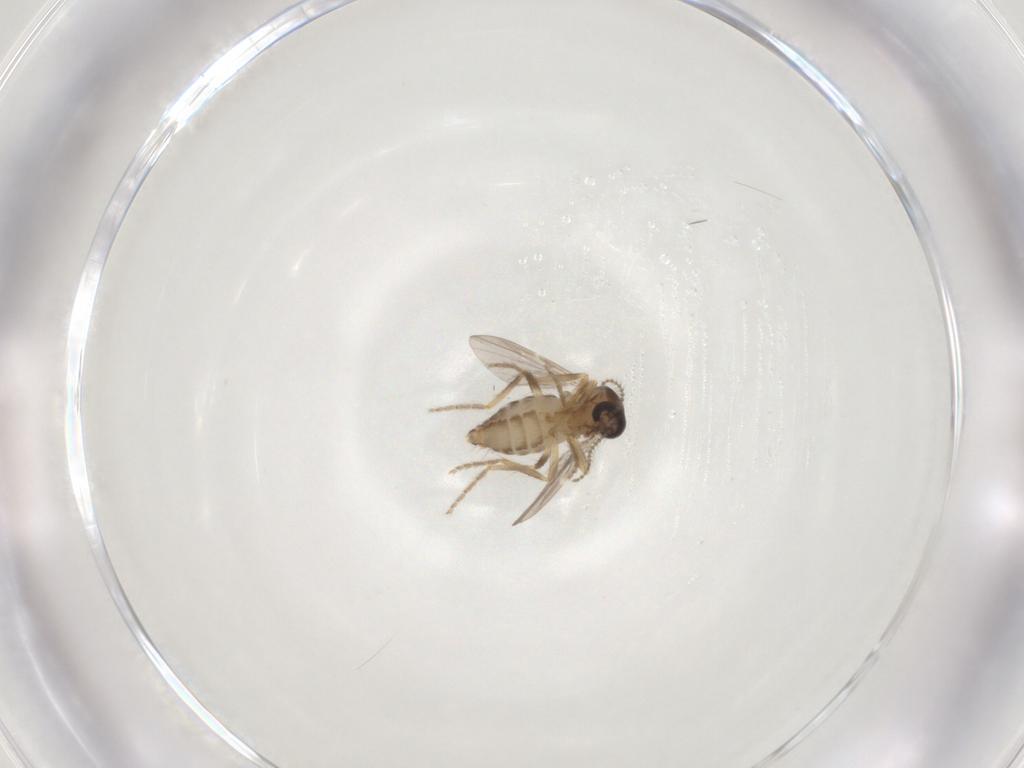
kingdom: Animalia
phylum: Arthropoda
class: Insecta
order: Diptera
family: Ceratopogonidae
